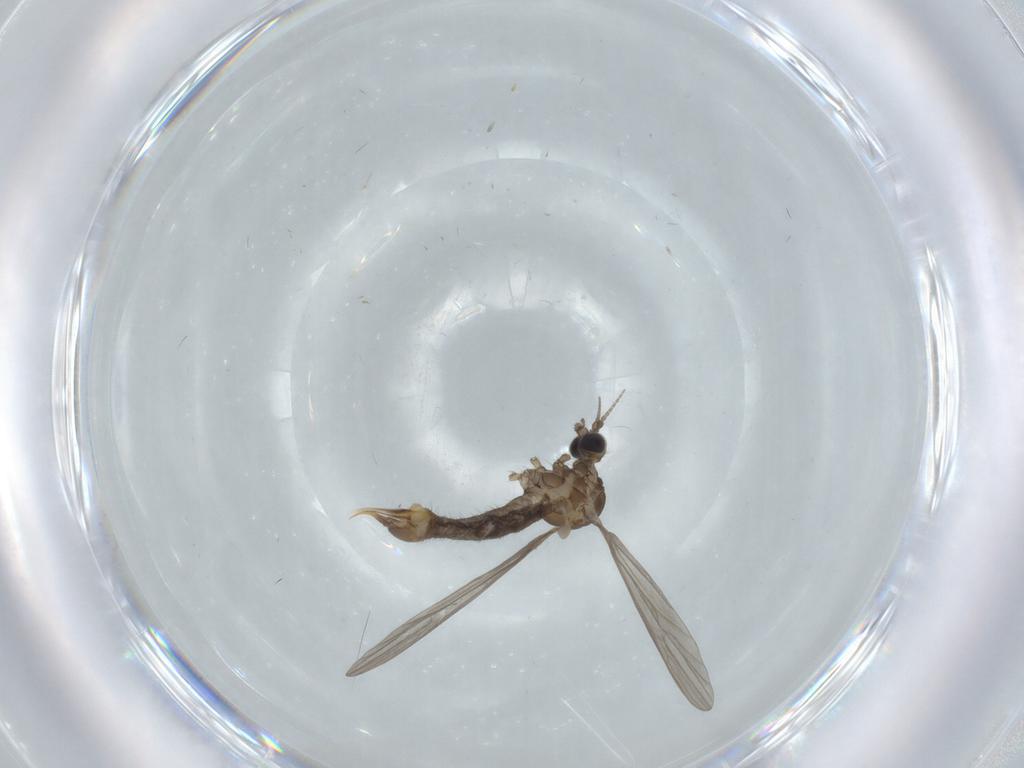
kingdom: Animalia
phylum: Arthropoda
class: Insecta
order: Diptera
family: Limoniidae
